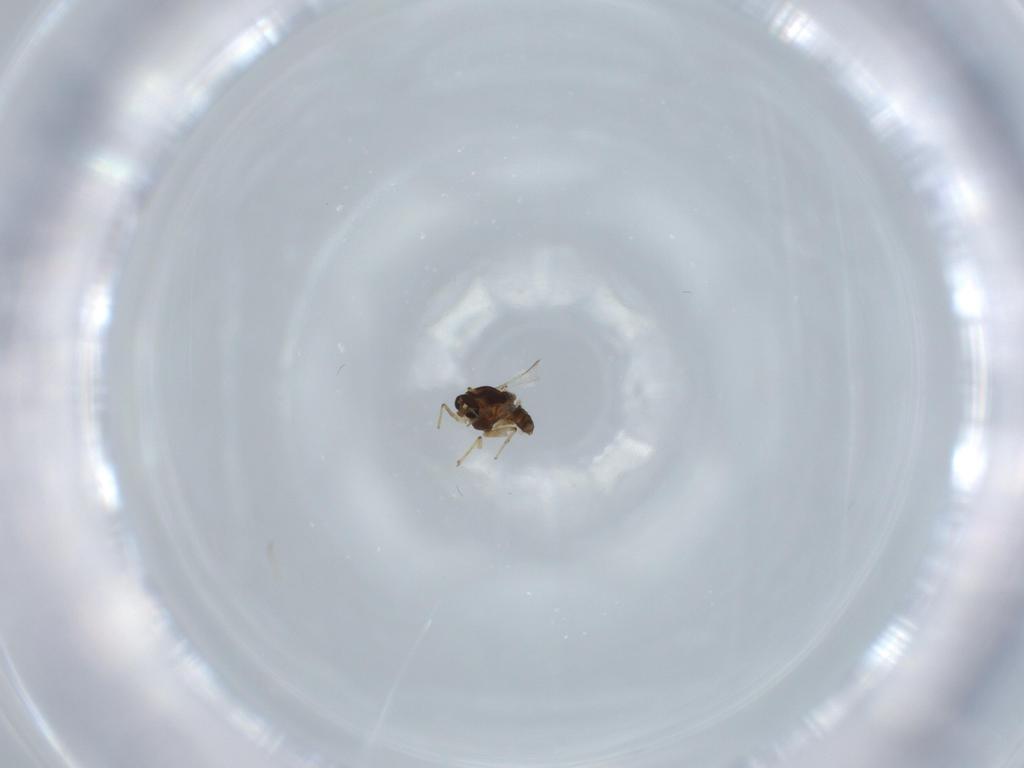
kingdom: Animalia
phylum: Arthropoda
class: Insecta
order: Diptera
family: Chironomidae
